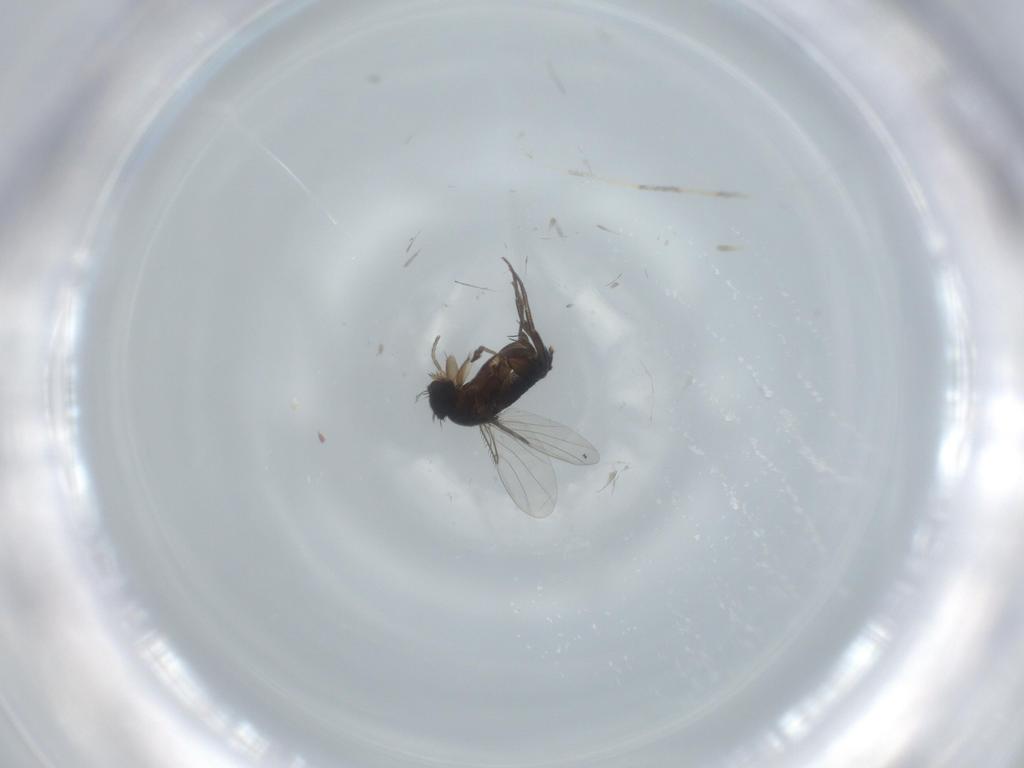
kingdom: Animalia
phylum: Arthropoda
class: Insecta
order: Diptera
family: Phoridae
